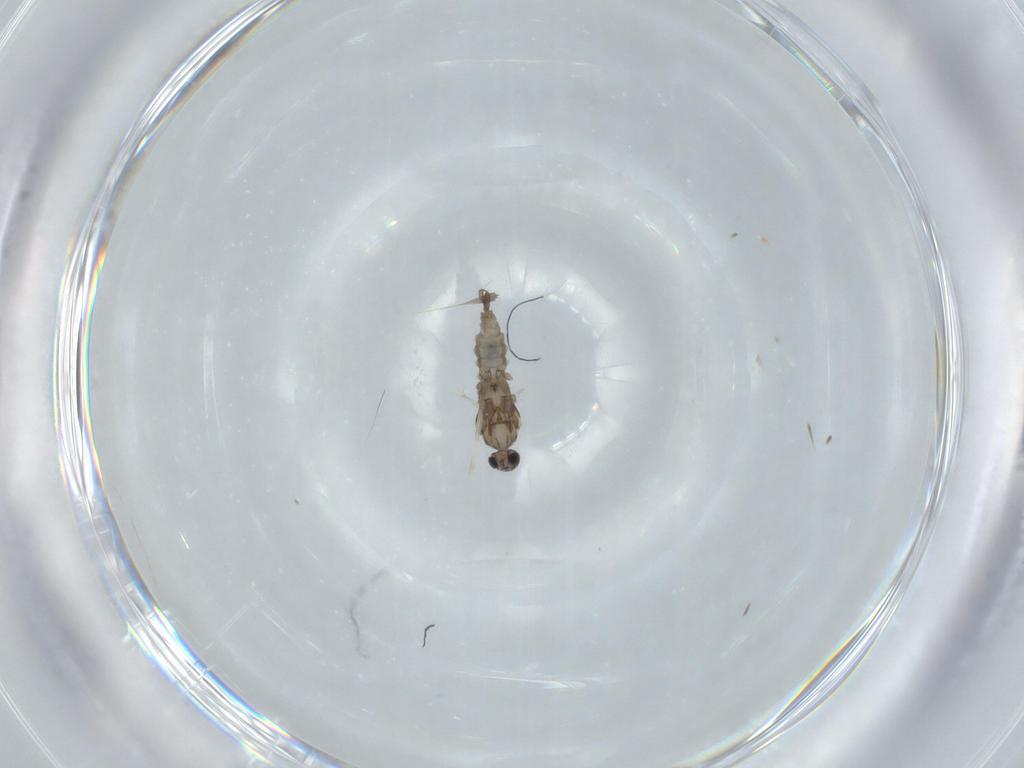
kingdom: Animalia
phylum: Arthropoda
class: Insecta
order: Diptera
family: Cecidomyiidae
